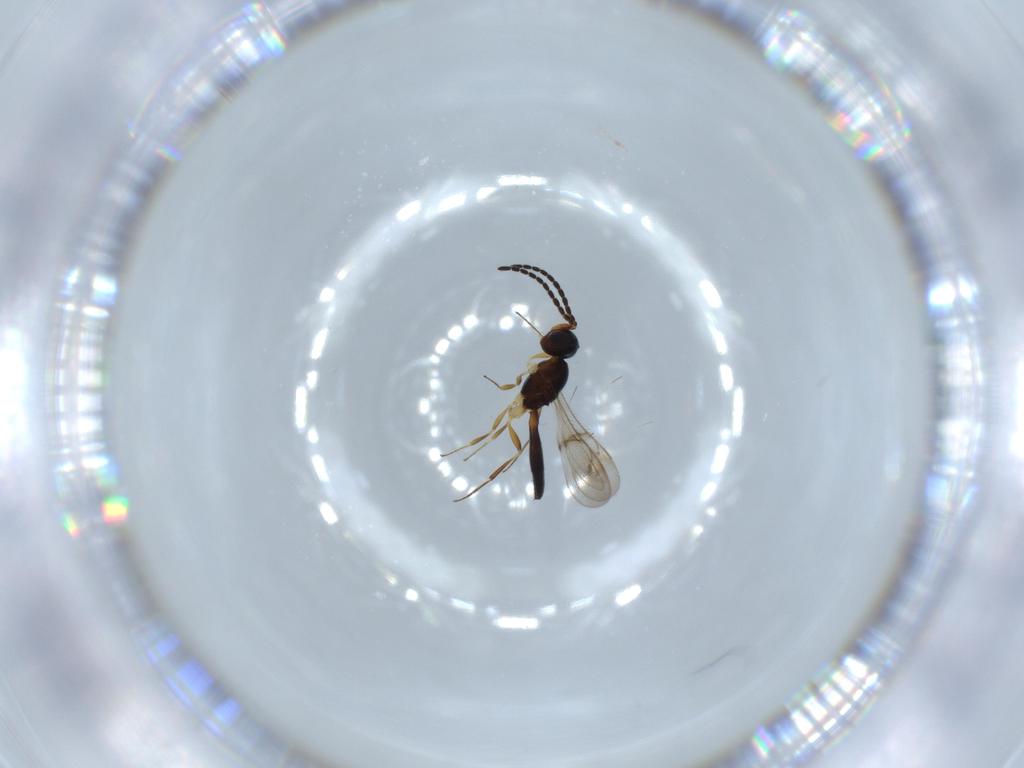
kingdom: Animalia
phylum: Arthropoda
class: Insecta
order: Hymenoptera
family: Scelionidae
